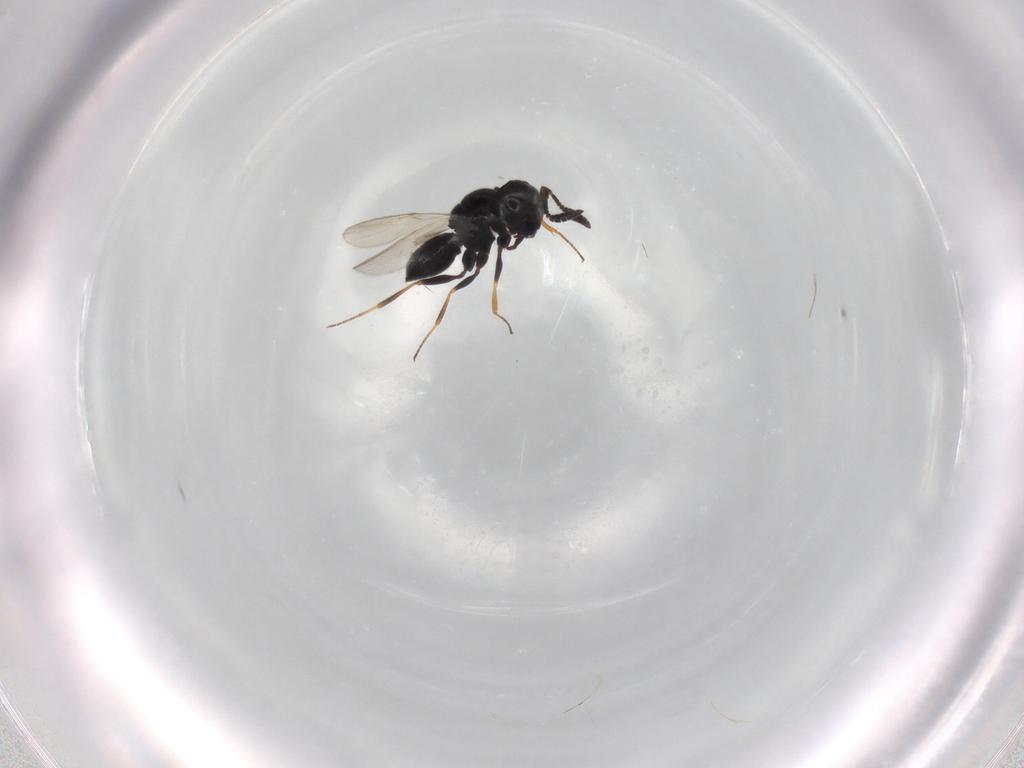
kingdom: Animalia
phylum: Arthropoda
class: Insecta
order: Hymenoptera
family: Scelionidae
